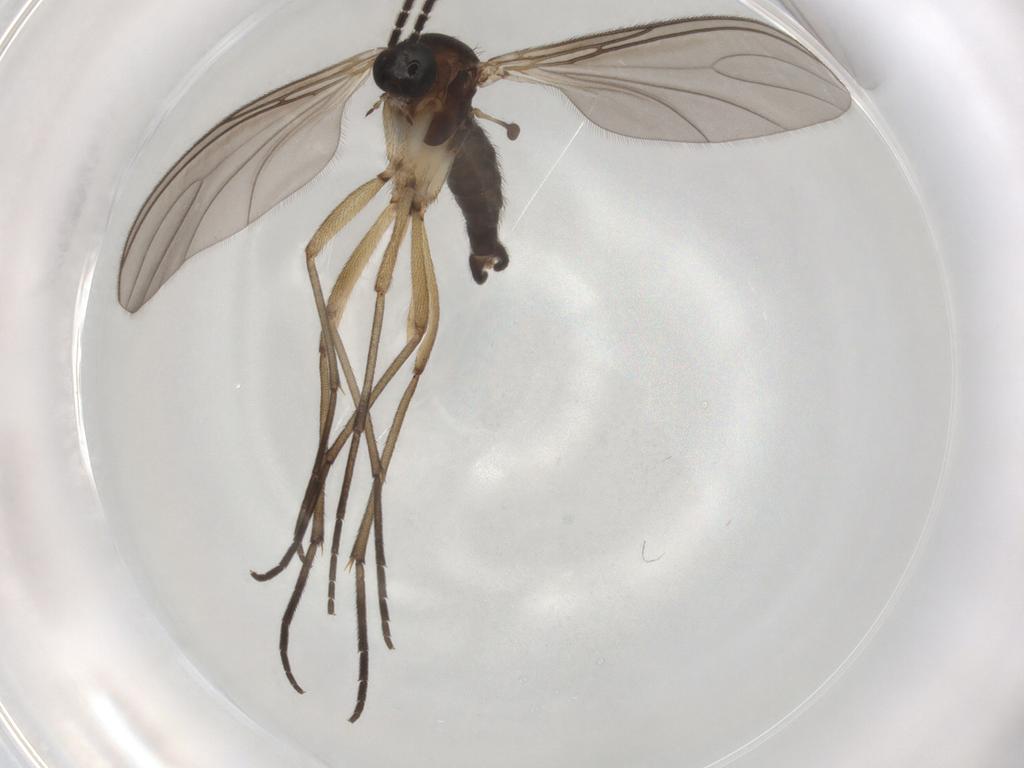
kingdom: Animalia
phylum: Arthropoda
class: Insecta
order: Diptera
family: Sciaridae
